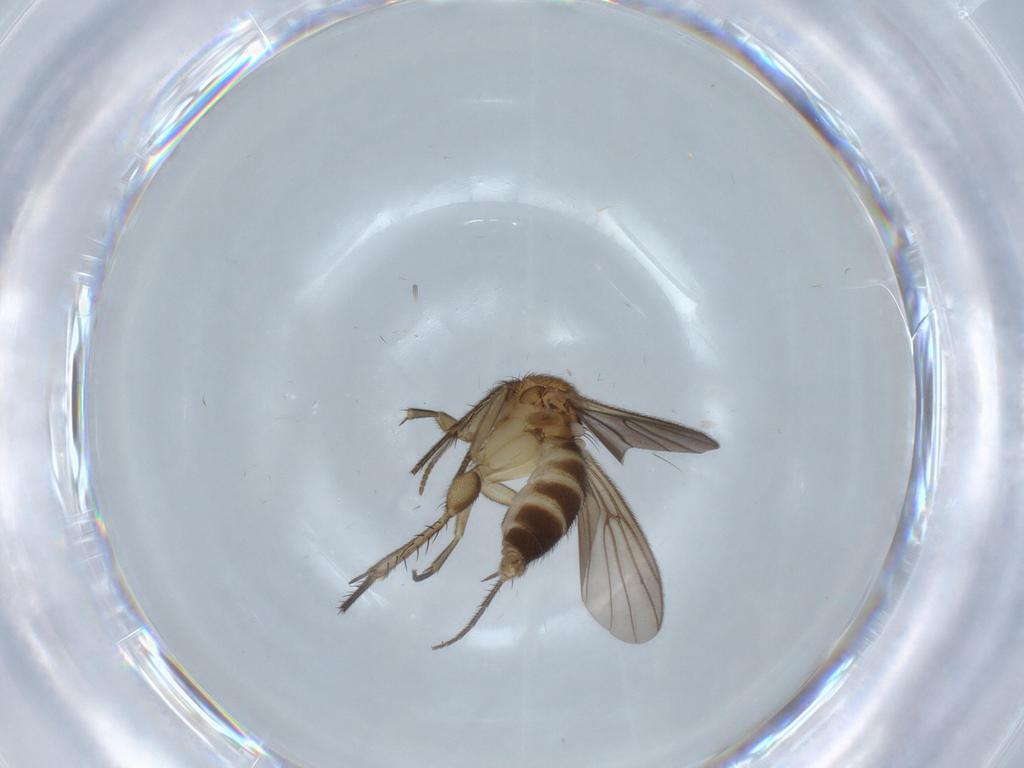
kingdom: Animalia
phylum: Arthropoda
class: Insecta
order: Diptera
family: Mycetophilidae
